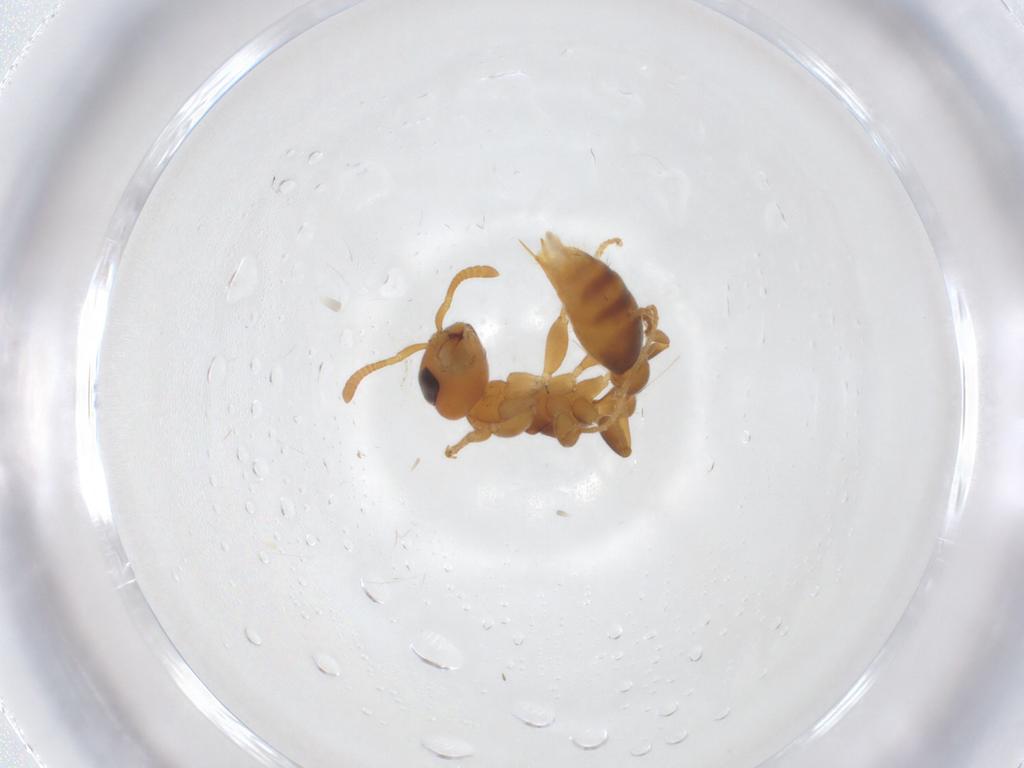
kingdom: Animalia
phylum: Arthropoda
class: Insecta
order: Hymenoptera
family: Formicidae
